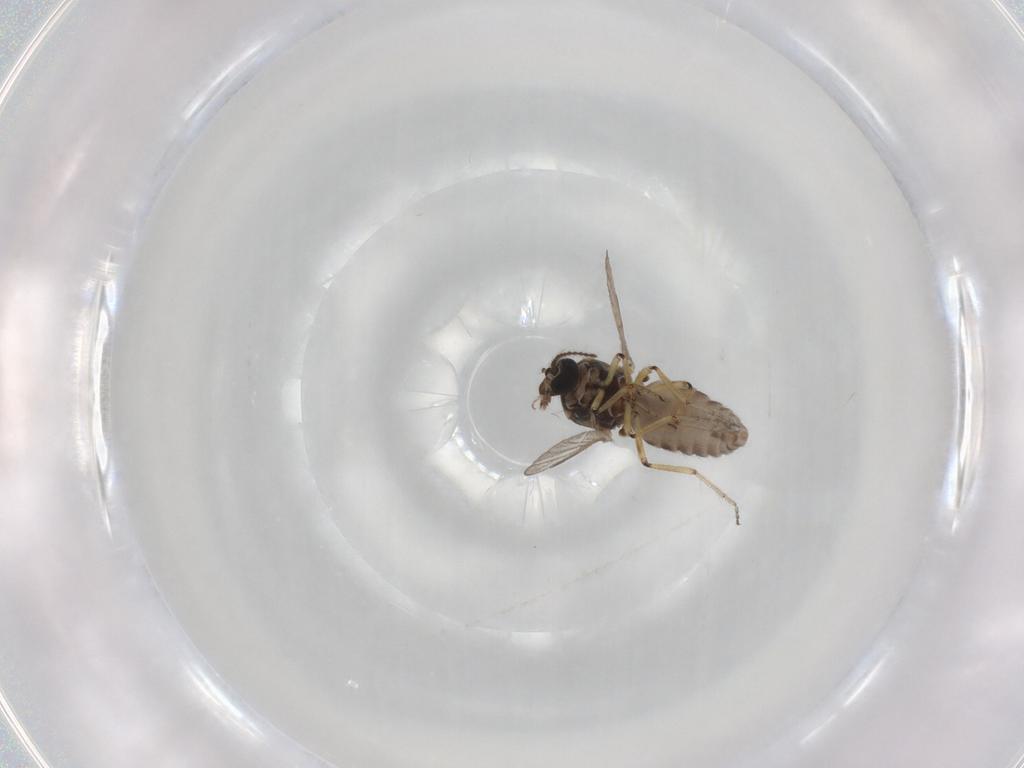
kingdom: Animalia
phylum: Arthropoda
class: Insecta
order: Diptera
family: Ceratopogonidae
